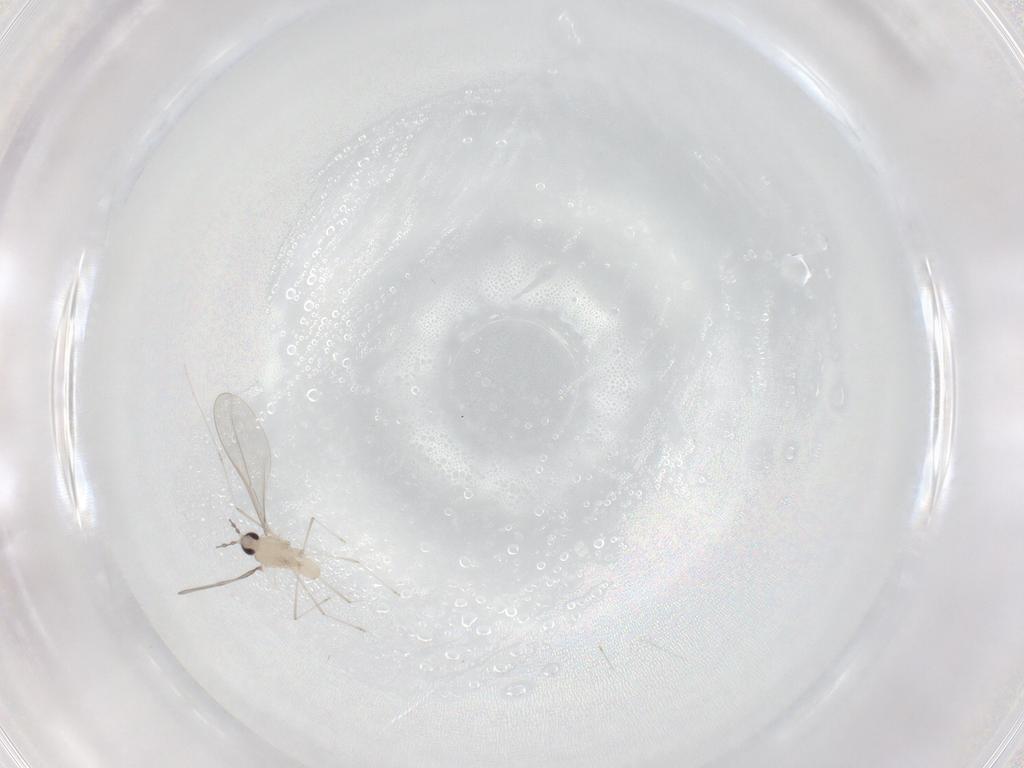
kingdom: Animalia
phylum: Arthropoda
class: Insecta
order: Diptera
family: Cecidomyiidae
